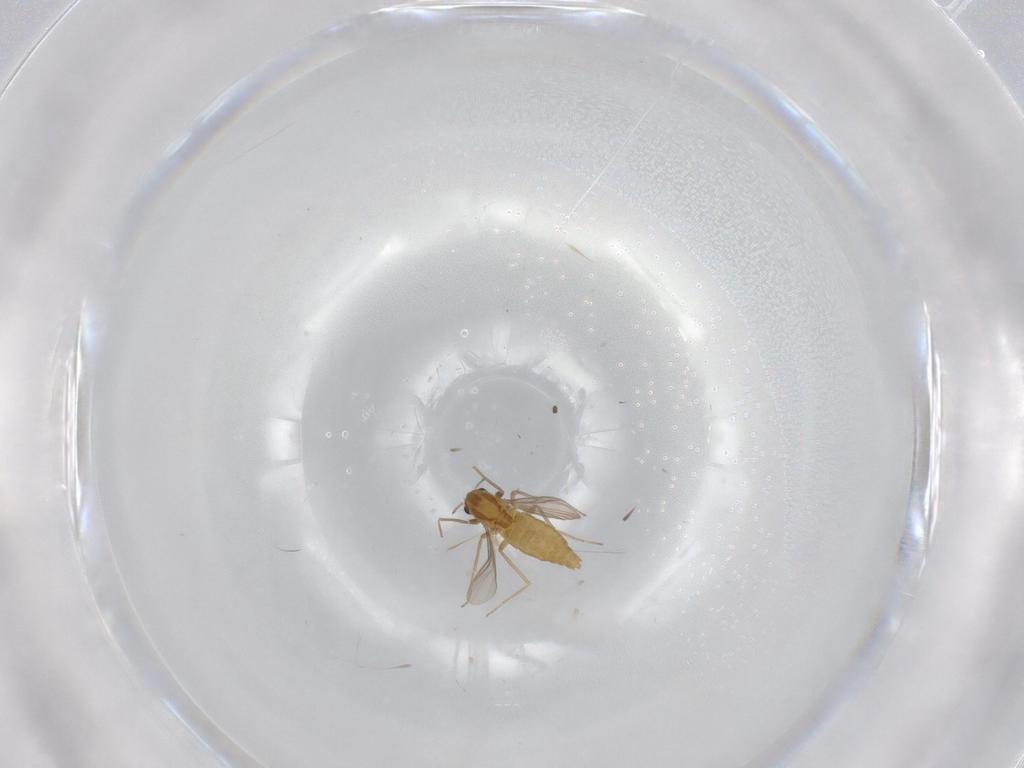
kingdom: Animalia
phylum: Arthropoda
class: Insecta
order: Diptera
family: Chironomidae
